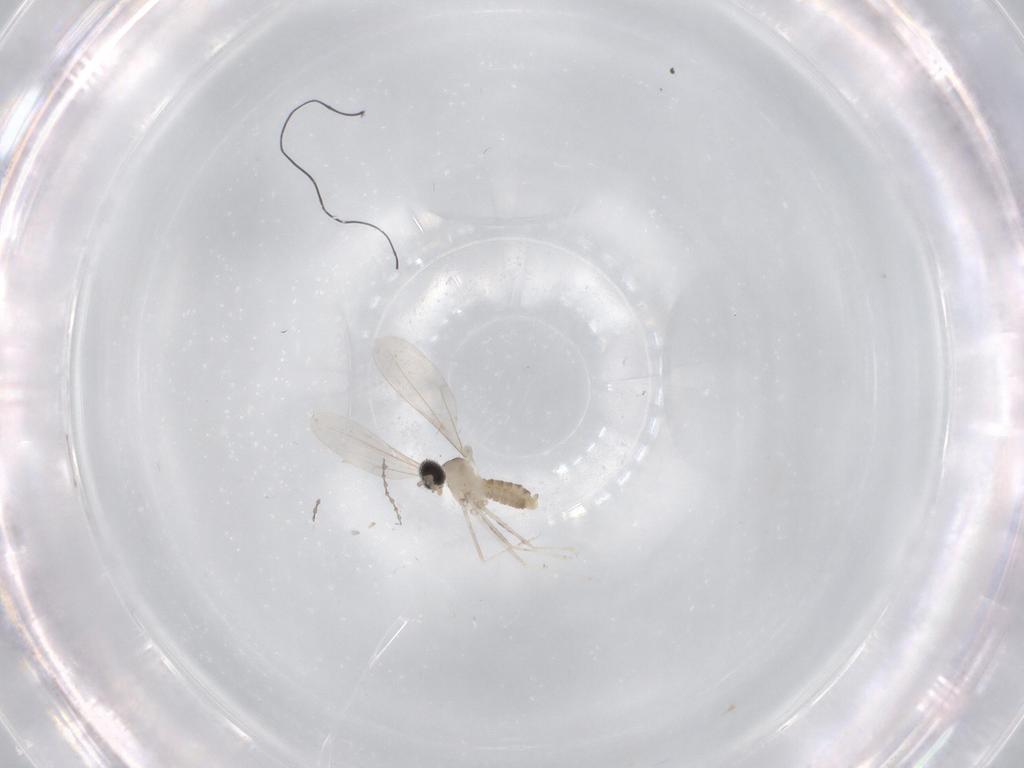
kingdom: Animalia
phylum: Arthropoda
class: Insecta
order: Diptera
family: Cecidomyiidae
